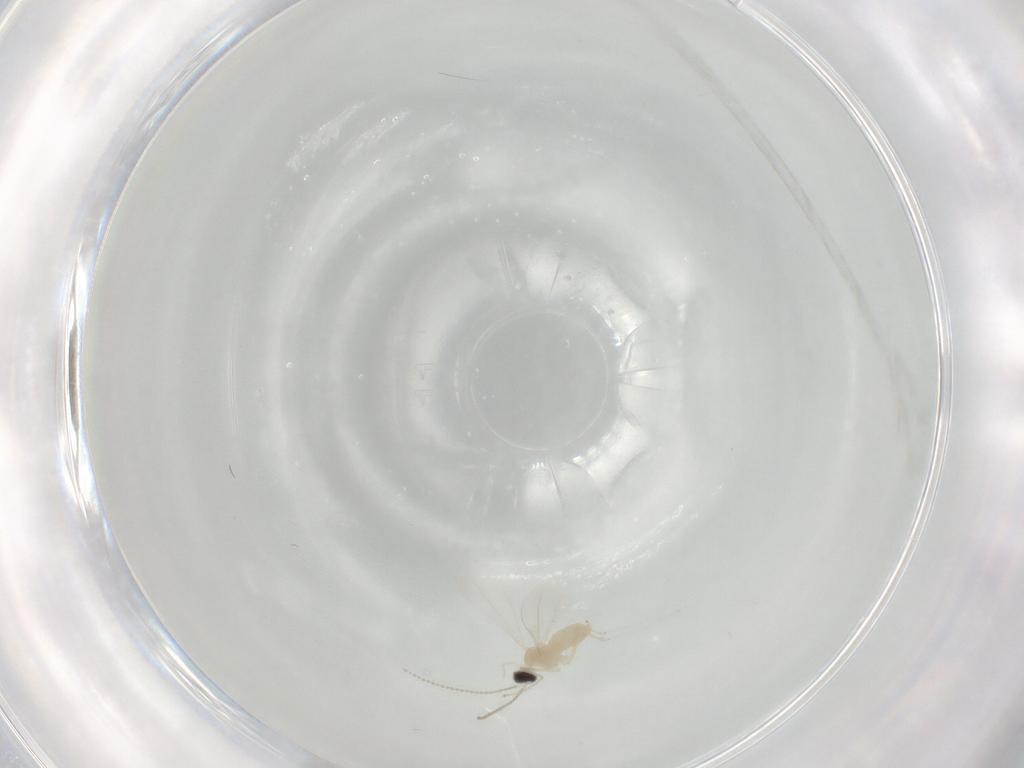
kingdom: Animalia
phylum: Arthropoda
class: Insecta
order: Diptera
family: Cecidomyiidae
